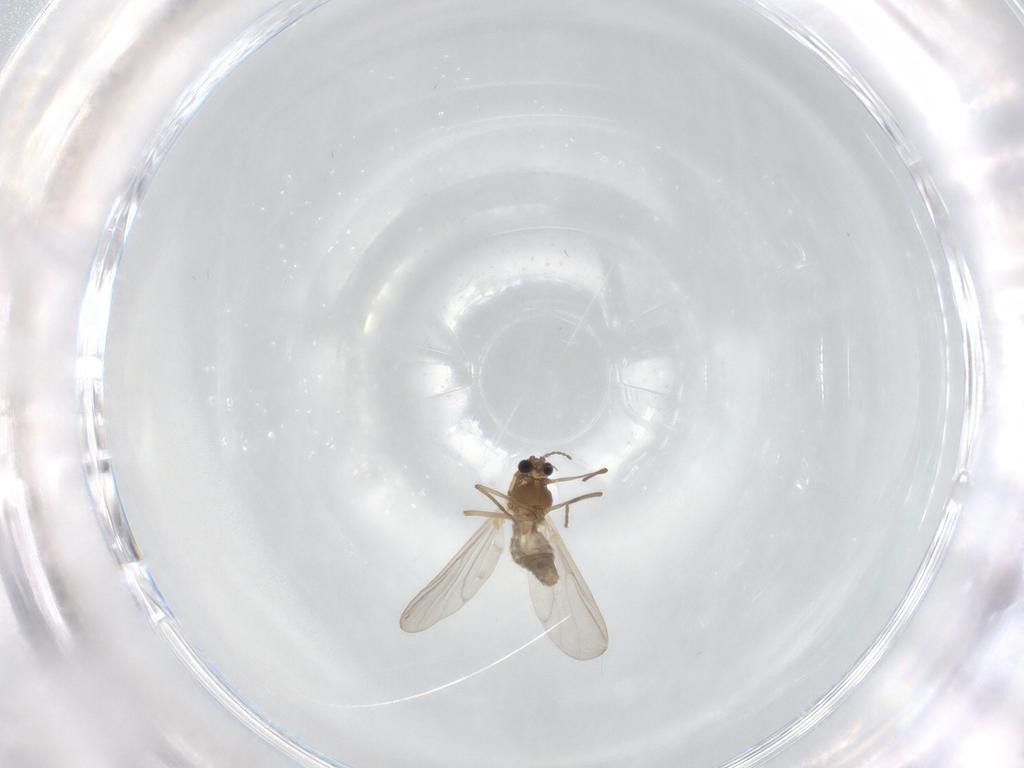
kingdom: Animalia
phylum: Arthropoda
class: Insecta
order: Diptera
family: Chironomidae
